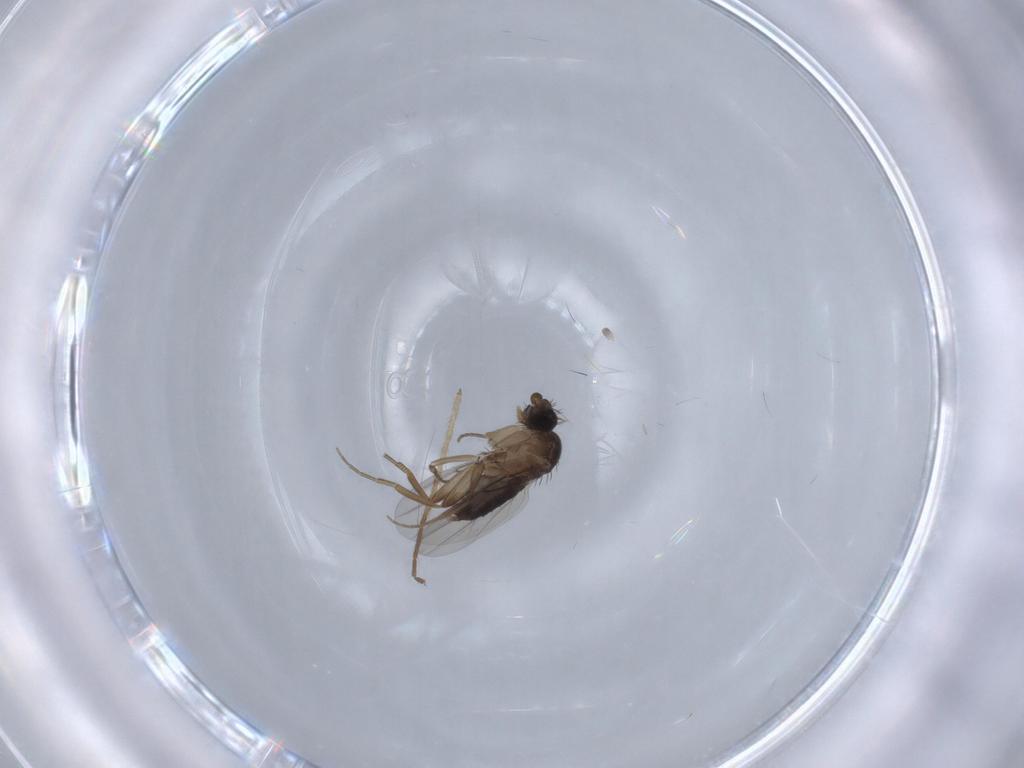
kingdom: Animalia
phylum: Arthropoda
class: Insecta
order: Diptera
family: Phoridae
